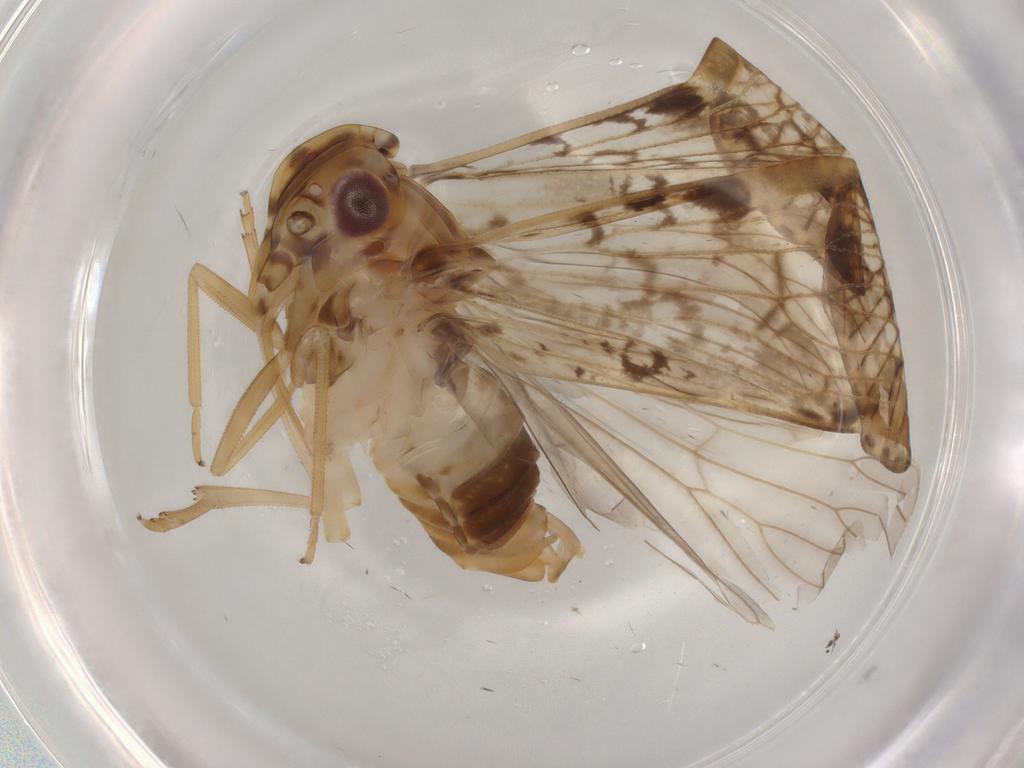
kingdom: Animalia
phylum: Arthropoda
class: Insecta
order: Hemiptera
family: Cixiidae
